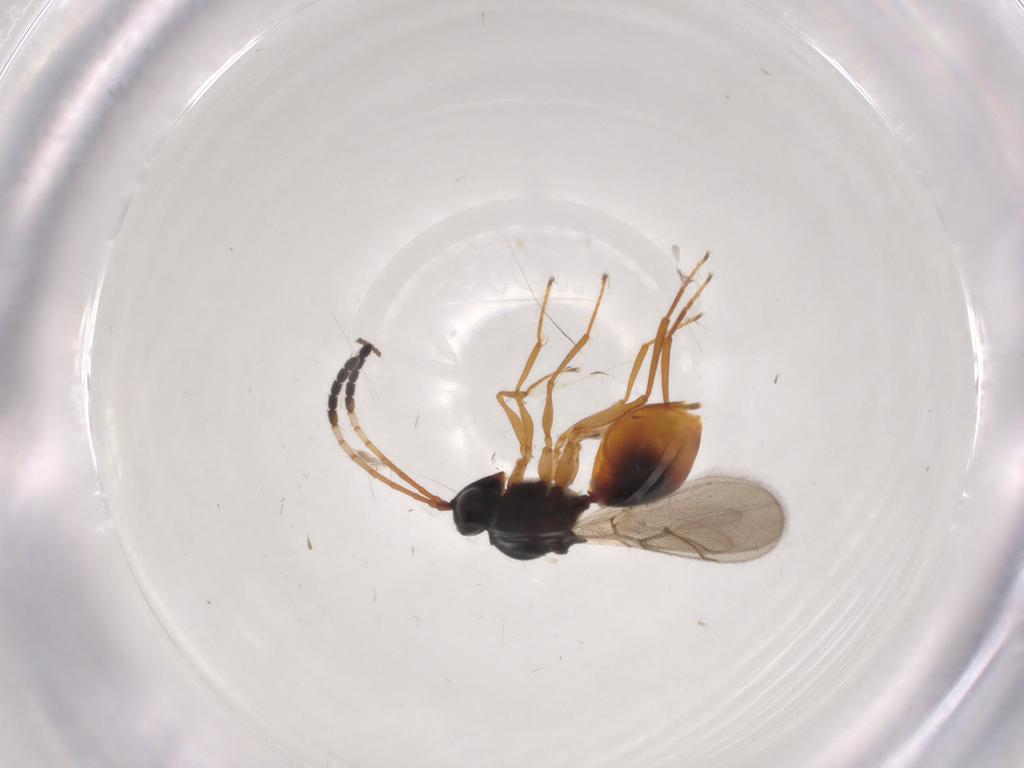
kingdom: Animalia
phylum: Arthropoda
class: Insecta
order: Hymenoptera
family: Figitidae
